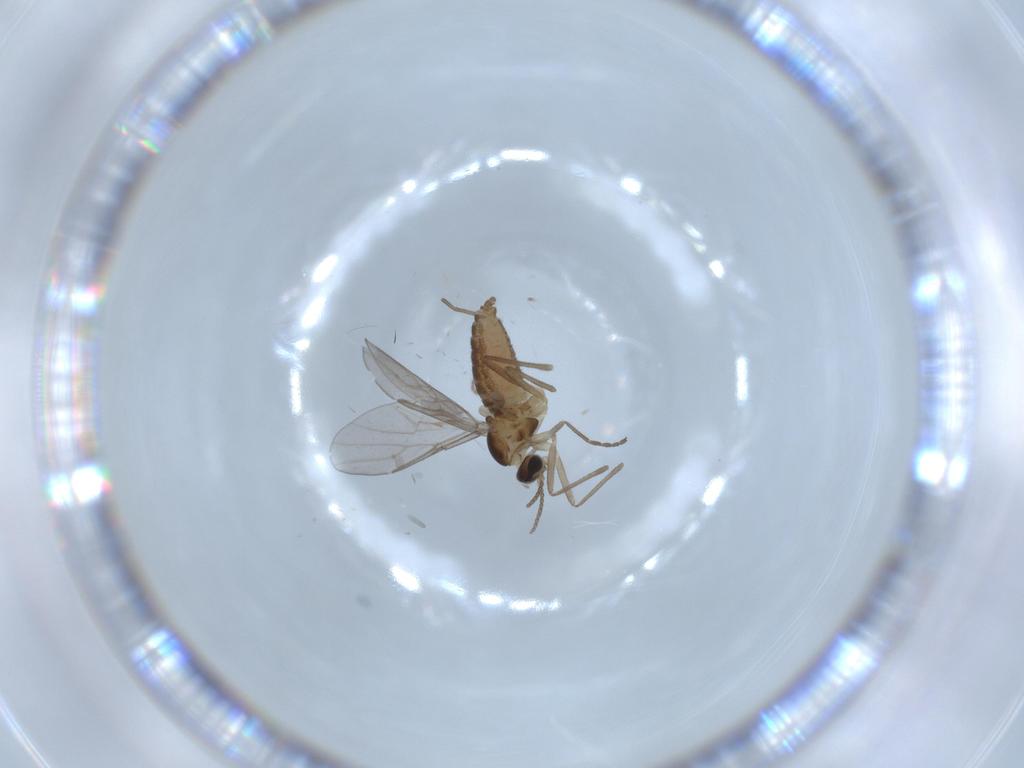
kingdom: Animalia
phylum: Arthropoda
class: Insecta
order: Diptera
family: Cecidomyiidae
